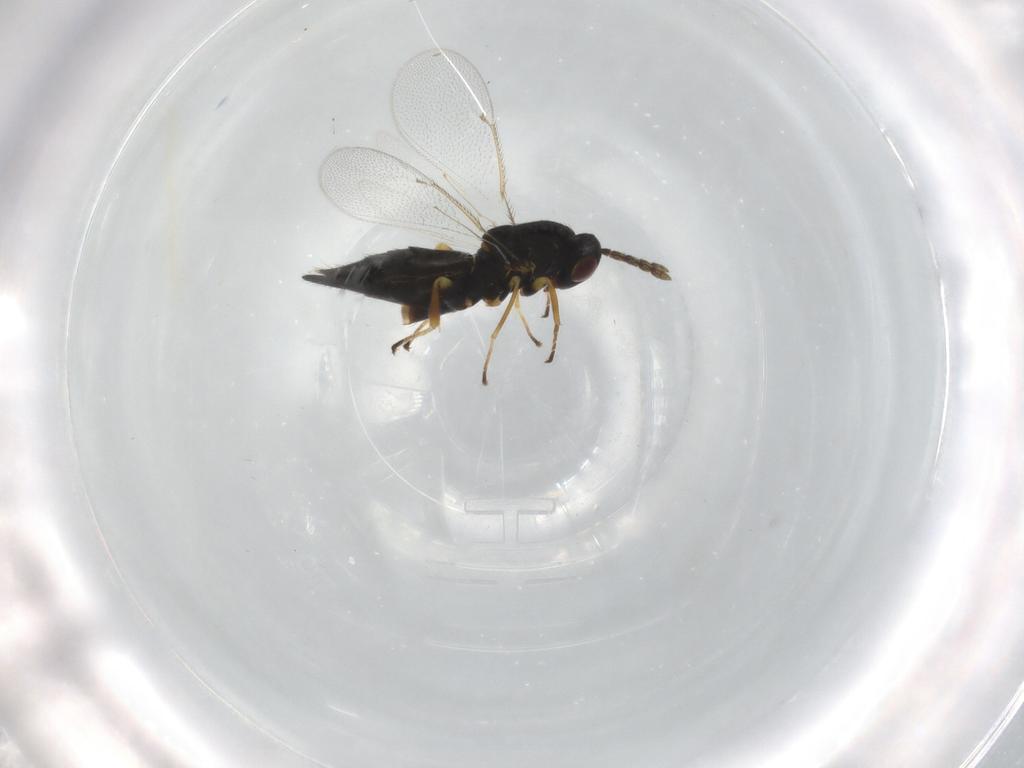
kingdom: Animalia
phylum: Arthropoda
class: Insecta
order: Hymenoptera
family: Eulophidae
